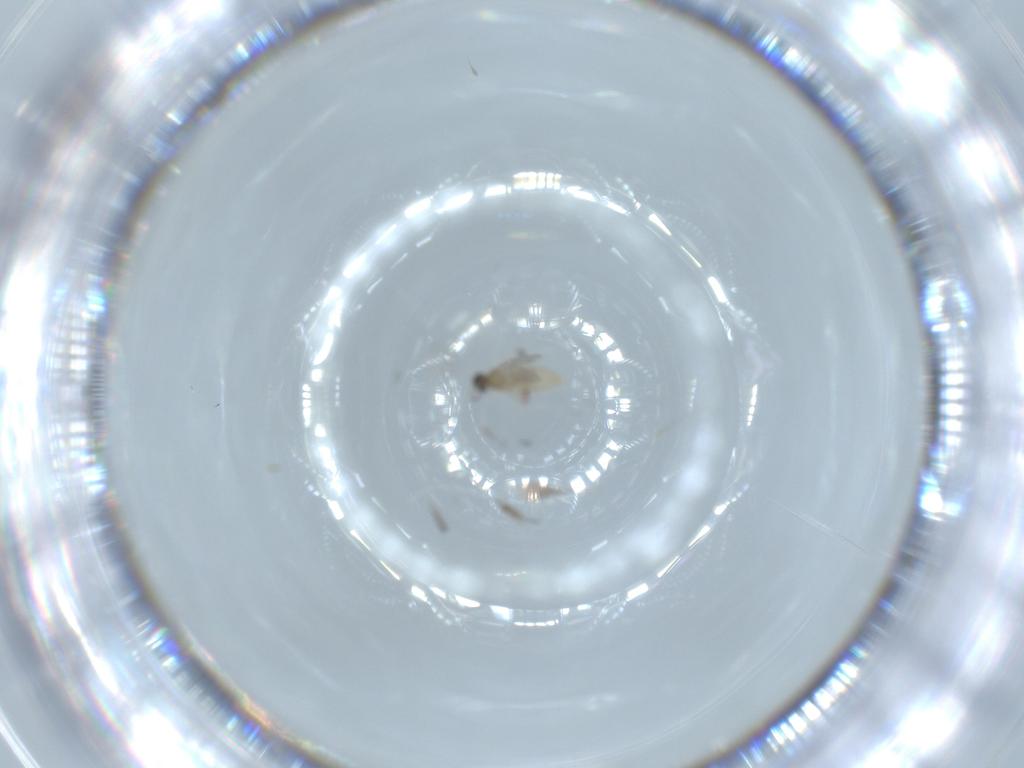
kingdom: Animalia
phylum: Arthropoda
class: Insecta
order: Diptera
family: Cecidomyiidae
